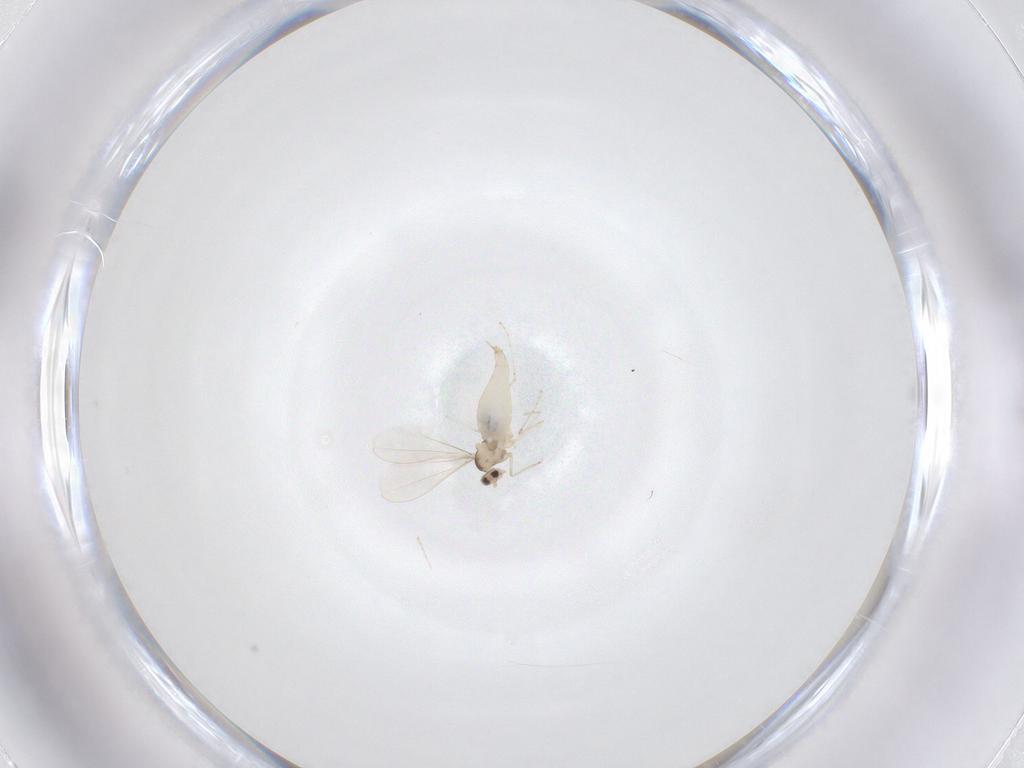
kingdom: Animalia
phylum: Arthropoda
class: Insecta
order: Diptera
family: Cecidomyiidae
